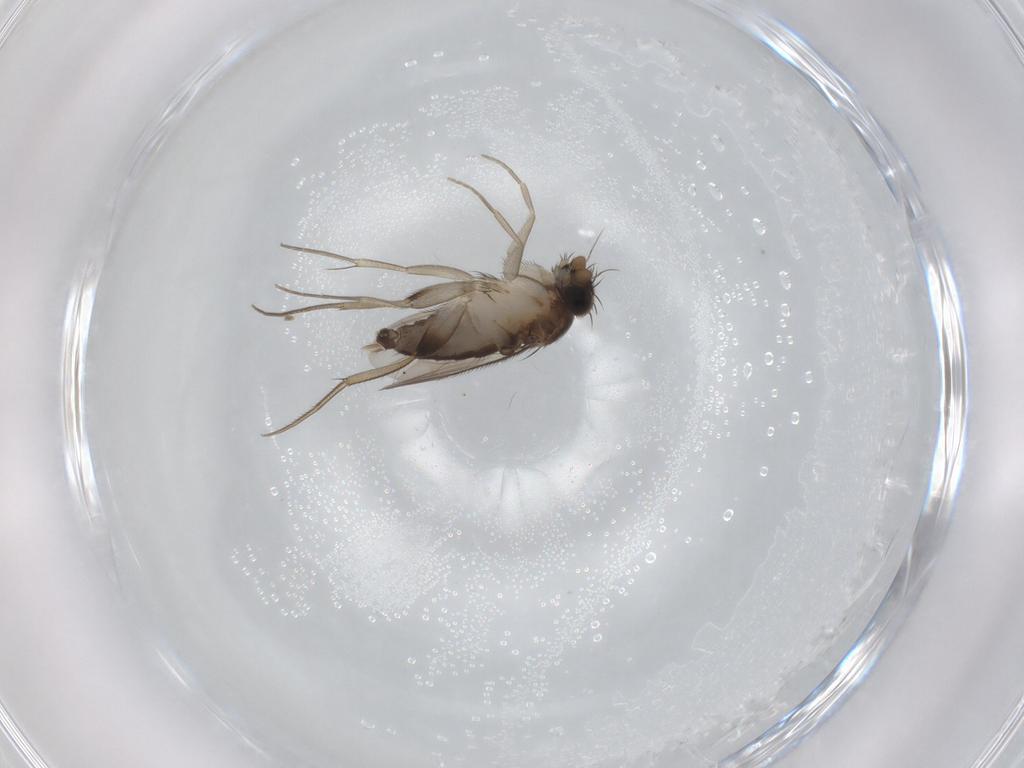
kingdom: Animalia
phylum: Arthropoda
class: Insecta
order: Diptera
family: Phoridae
